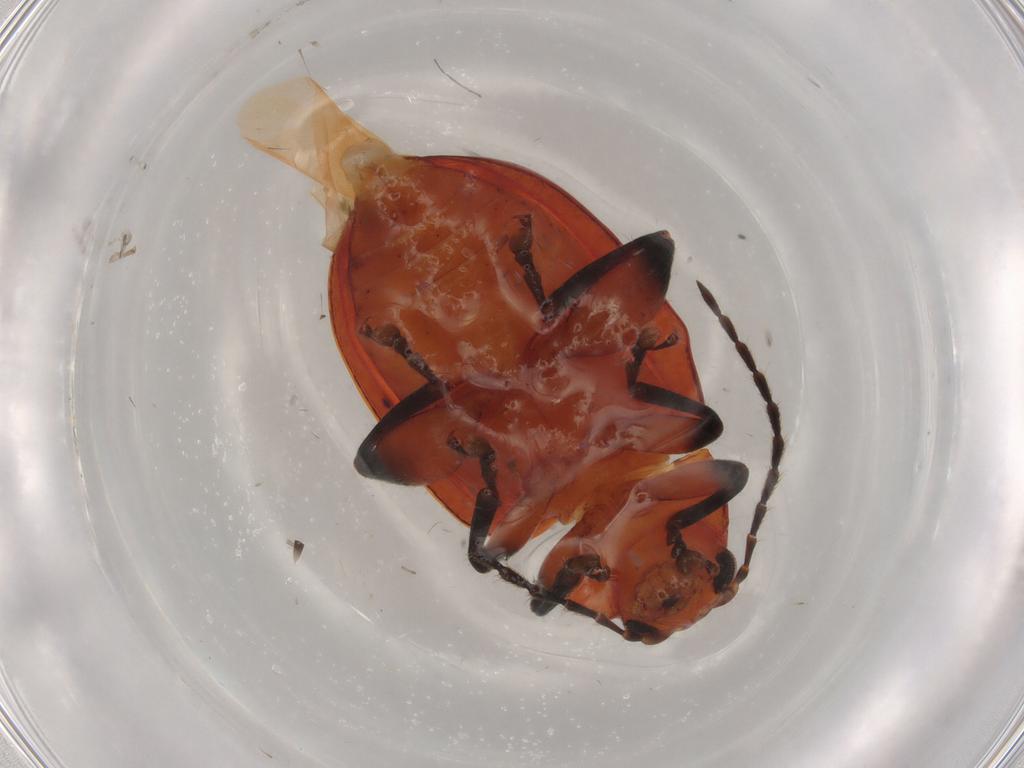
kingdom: Animalia
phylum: Arthropoda
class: Insecta
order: Coleoptera
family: Chrysomelidae
